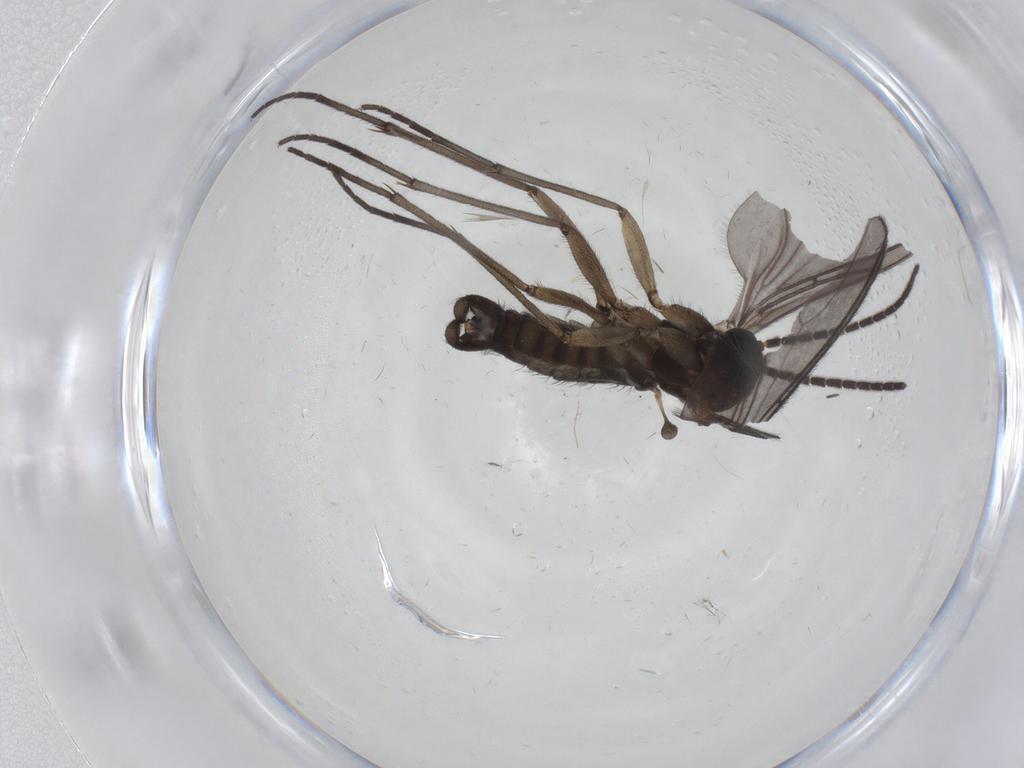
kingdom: Animalia
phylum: Arthropoda
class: Insecta
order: Diptera
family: Sciaridae
